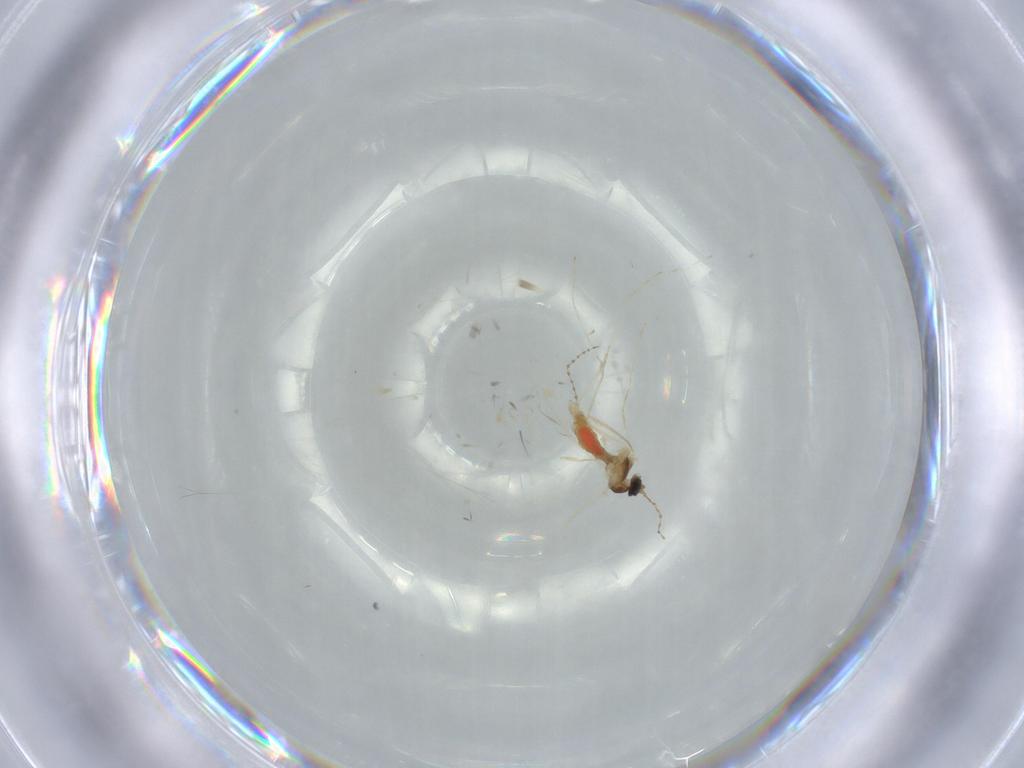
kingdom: Animalia
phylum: Arthropoda
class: Insecta
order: Diptera
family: Cecidomyiidae
